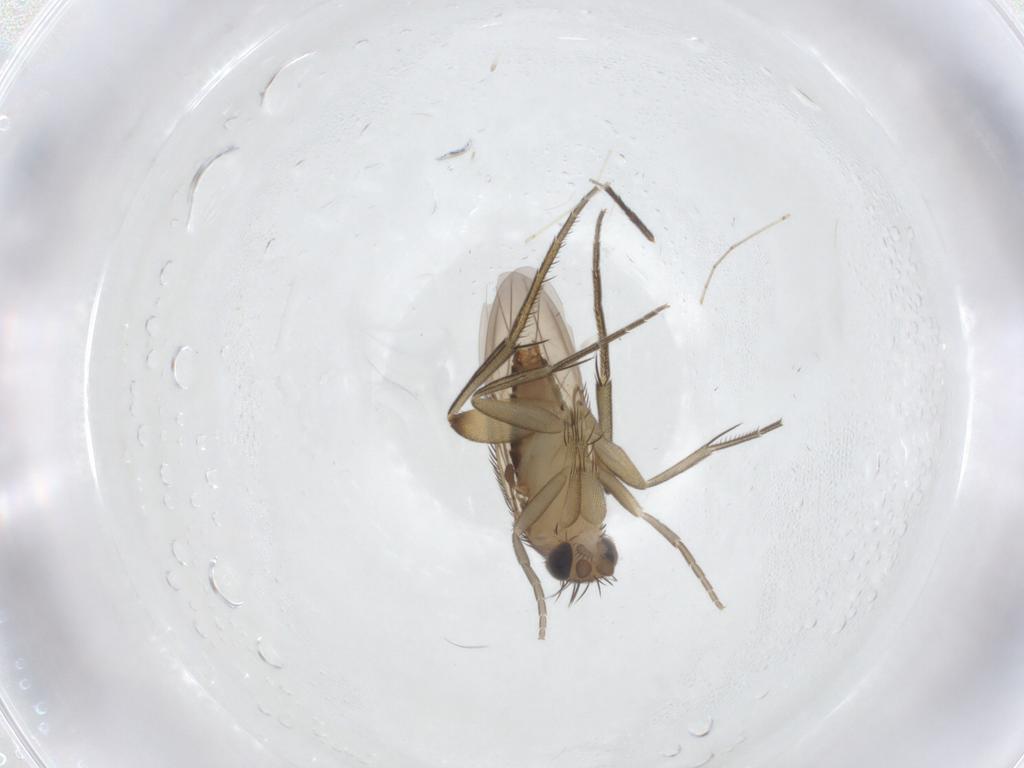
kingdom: Animalia
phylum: Arthropoda
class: Insecta
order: Diptera
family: Phoridae
